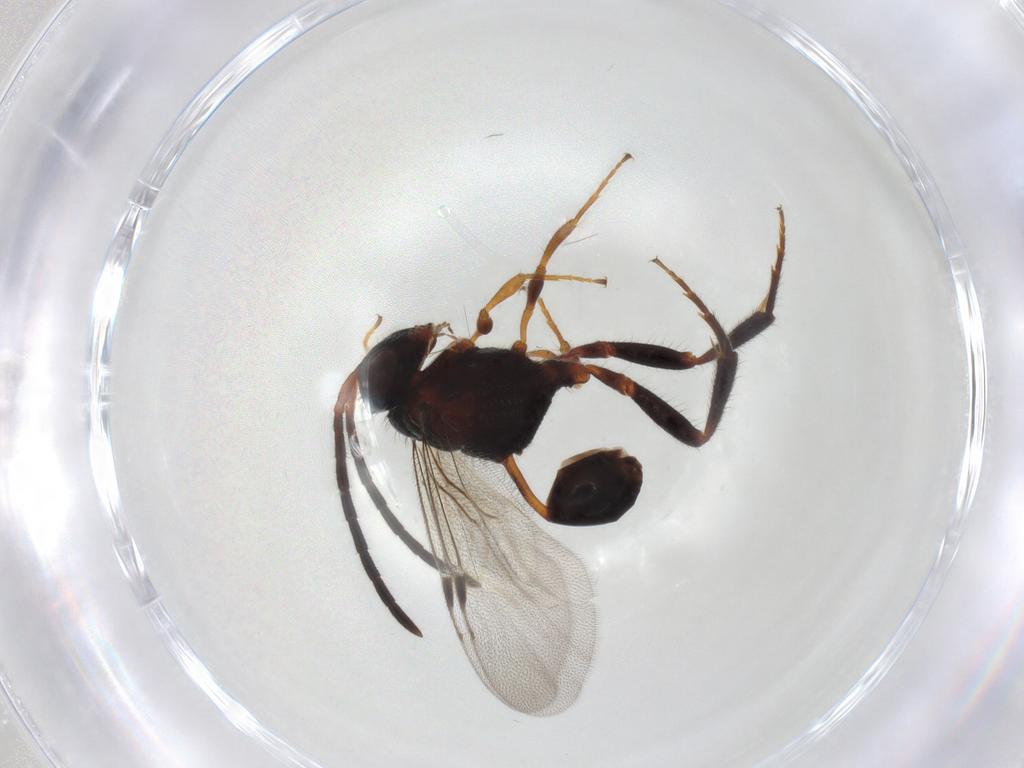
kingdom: Animalia
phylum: Arthropoda
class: Insecta
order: Hymenoptera
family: Evaniidae
